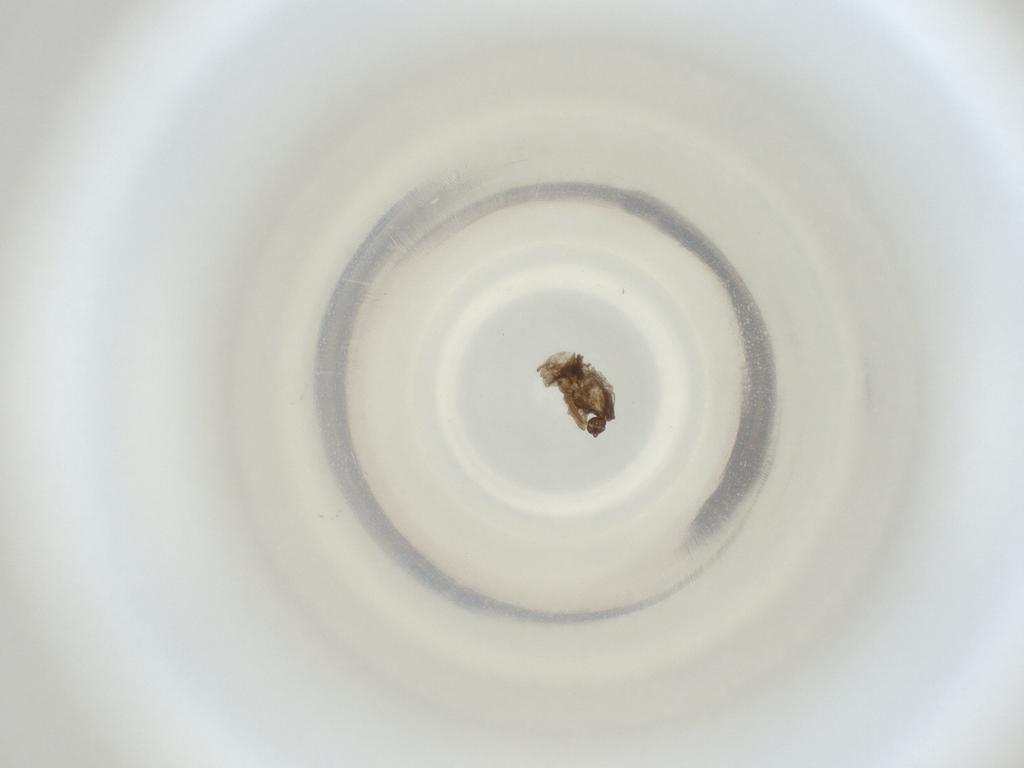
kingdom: Animalia
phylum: Arthropoda
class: Insecta
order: Diptera
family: Cecidomyiidae
